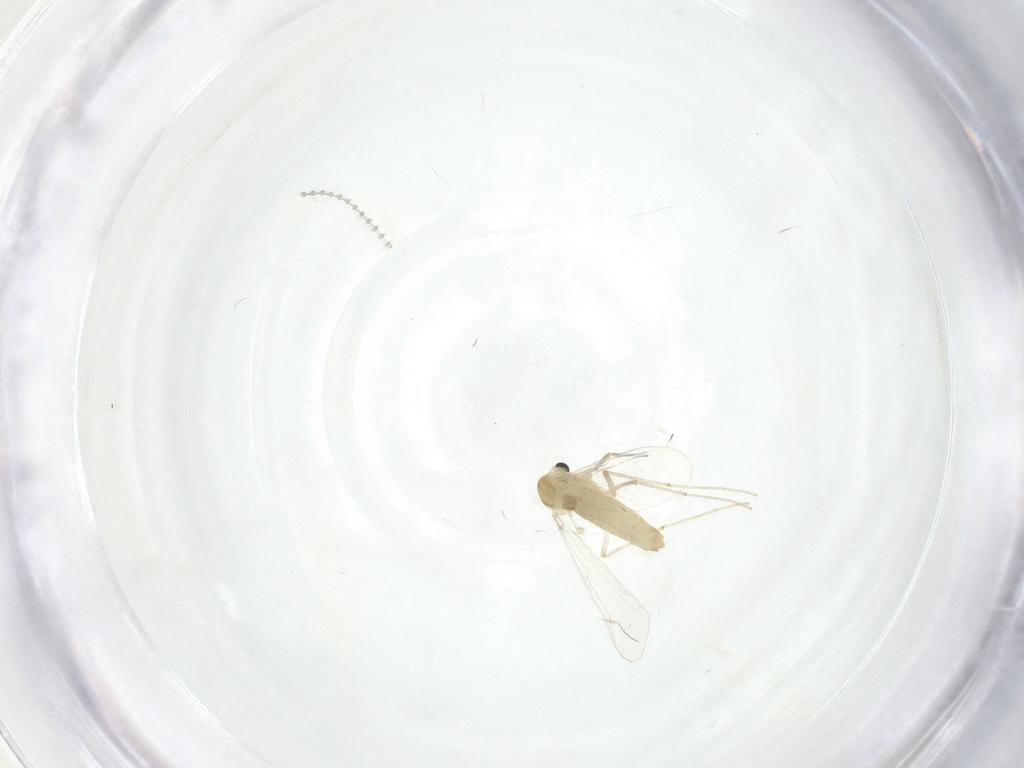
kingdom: Animalia
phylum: Arthropoda
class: Insecta
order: Diptera
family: Cecidomyiidae
